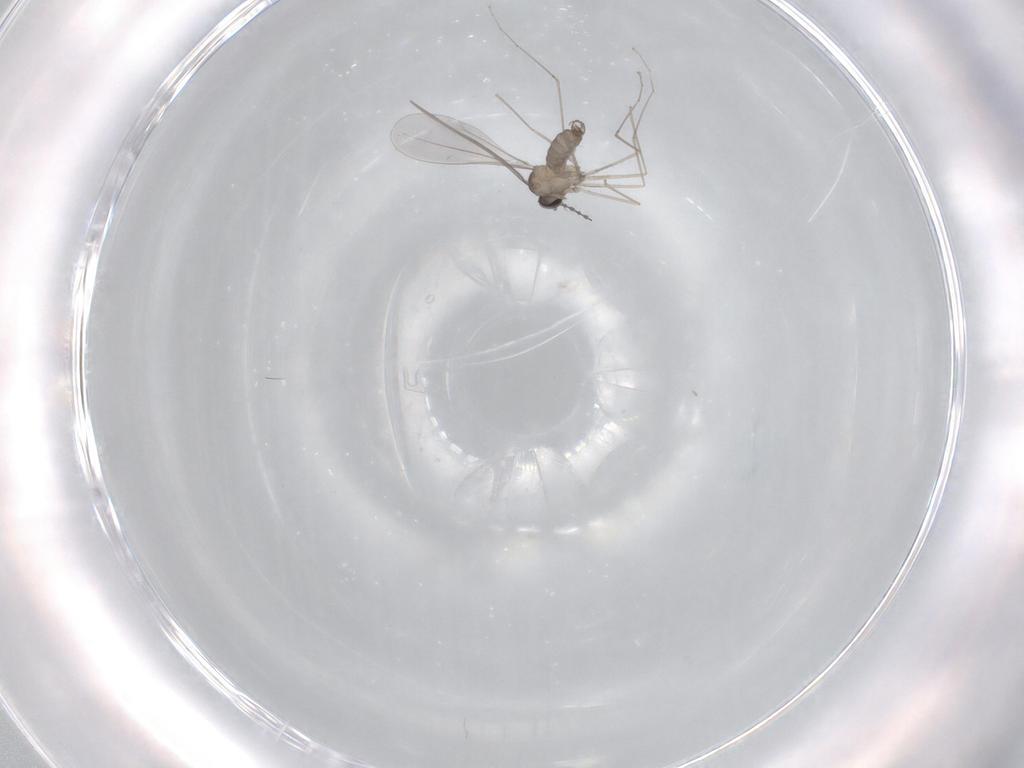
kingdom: Animalia
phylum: Arthropoda
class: Insecta
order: Diptera
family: Cecidomyiidae
